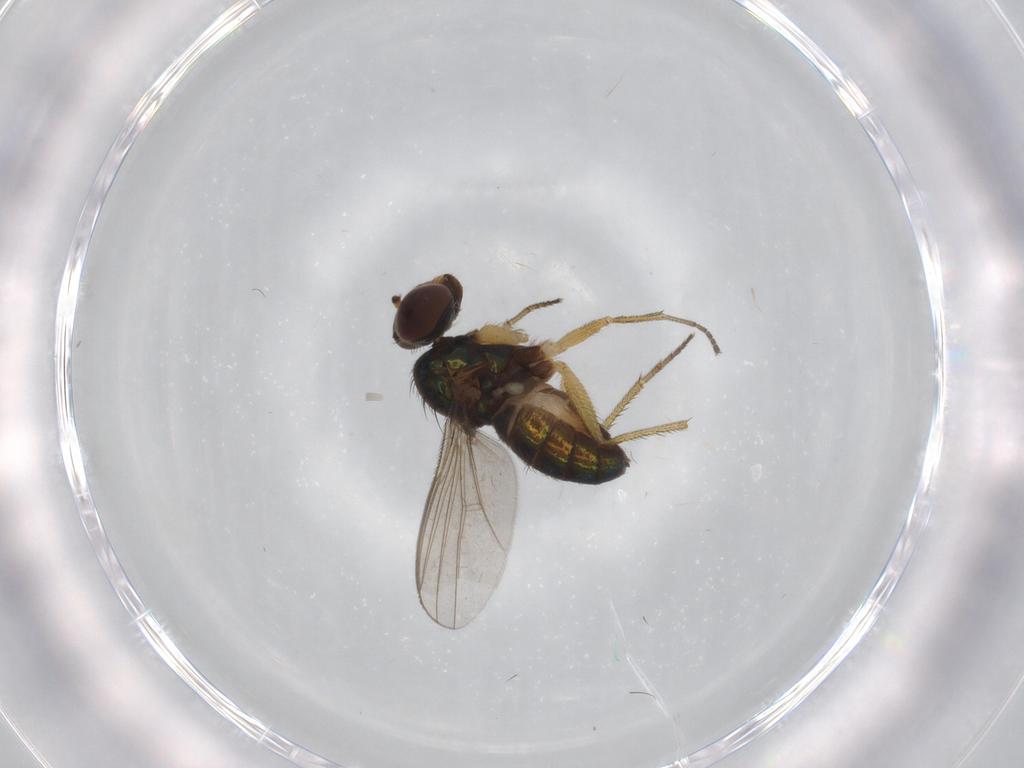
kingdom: Animalia
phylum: Arthropoda
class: Insecta
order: Diptera
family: Dolichopodidae
